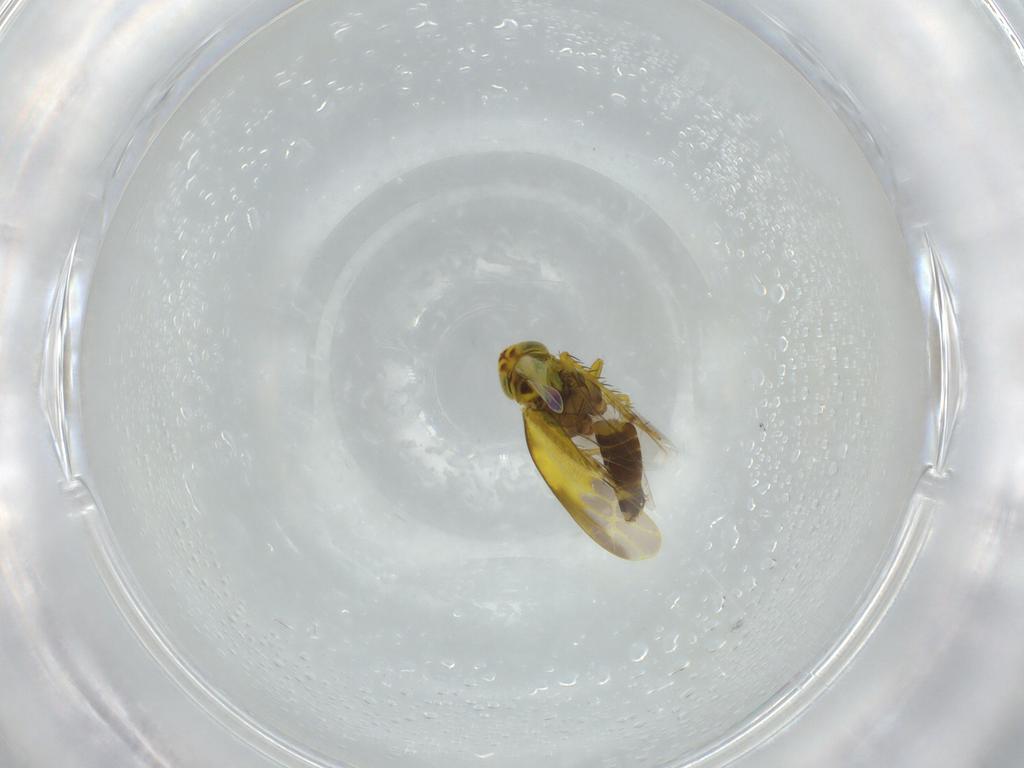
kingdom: Animalia
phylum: Arthropoda
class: Insecta
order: Hemiptera
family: Cicadellidae
